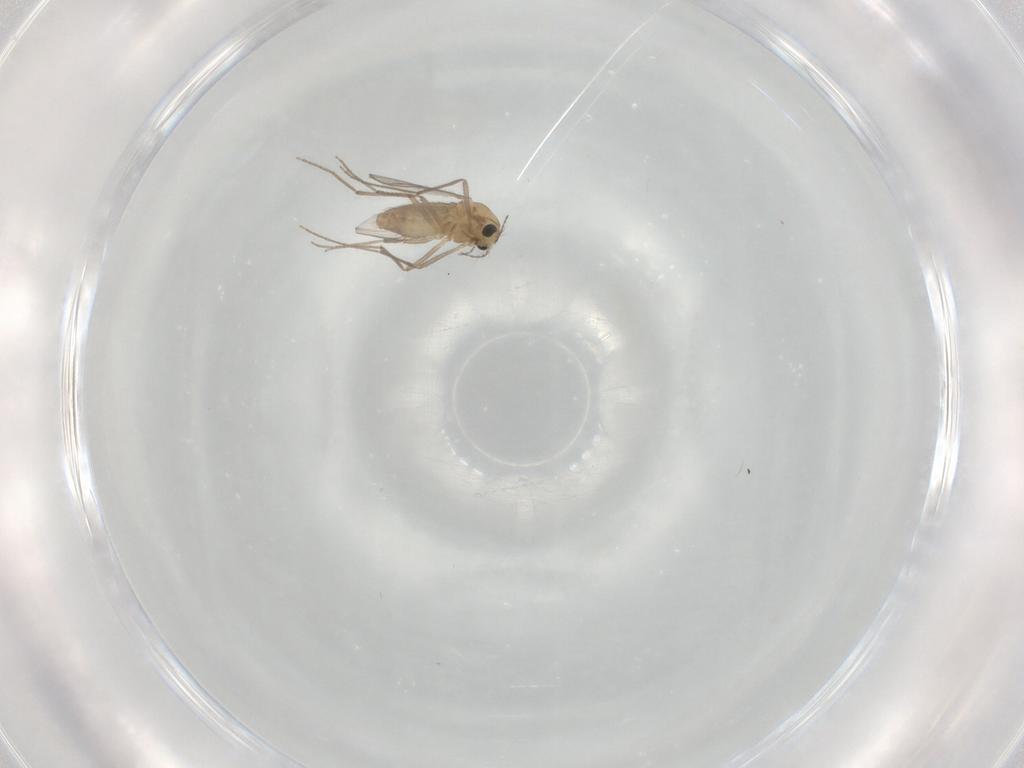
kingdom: Animalia
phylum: Arthropoda
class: Insecta
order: Diptera
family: Chironomidae
